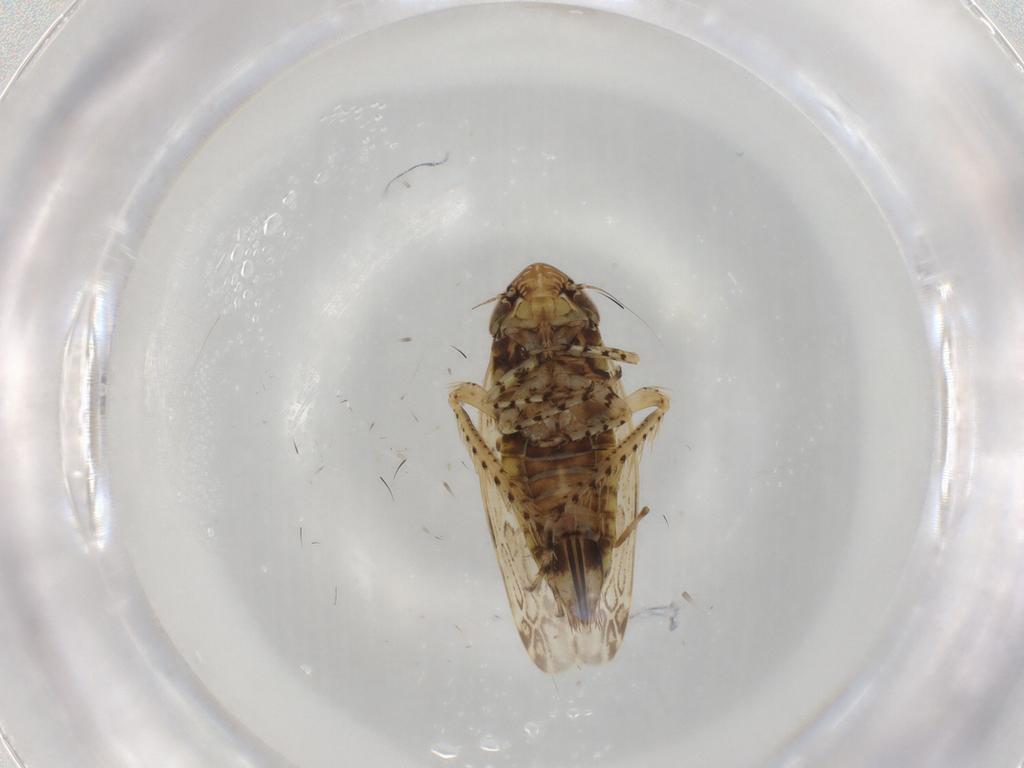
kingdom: Animalia
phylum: Arthropoda
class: Insecta
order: Hemiptera
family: Cicadellidae
